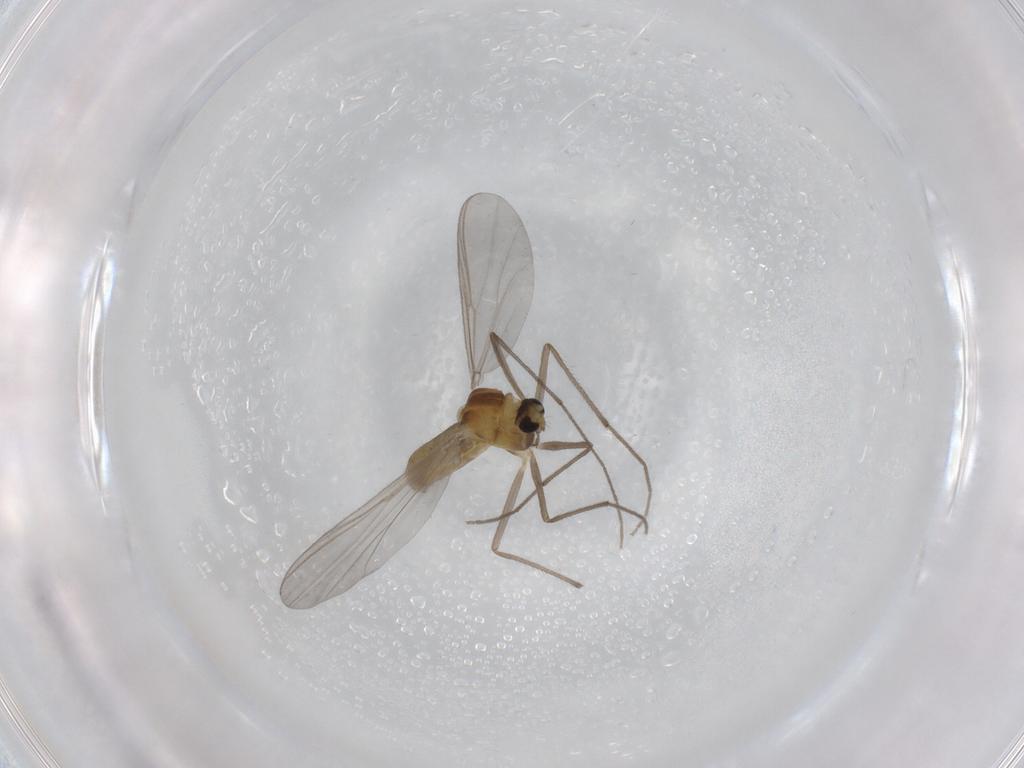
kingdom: Animalia
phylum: Arthropoda
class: Insecta
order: Diptera
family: Chironomidae
